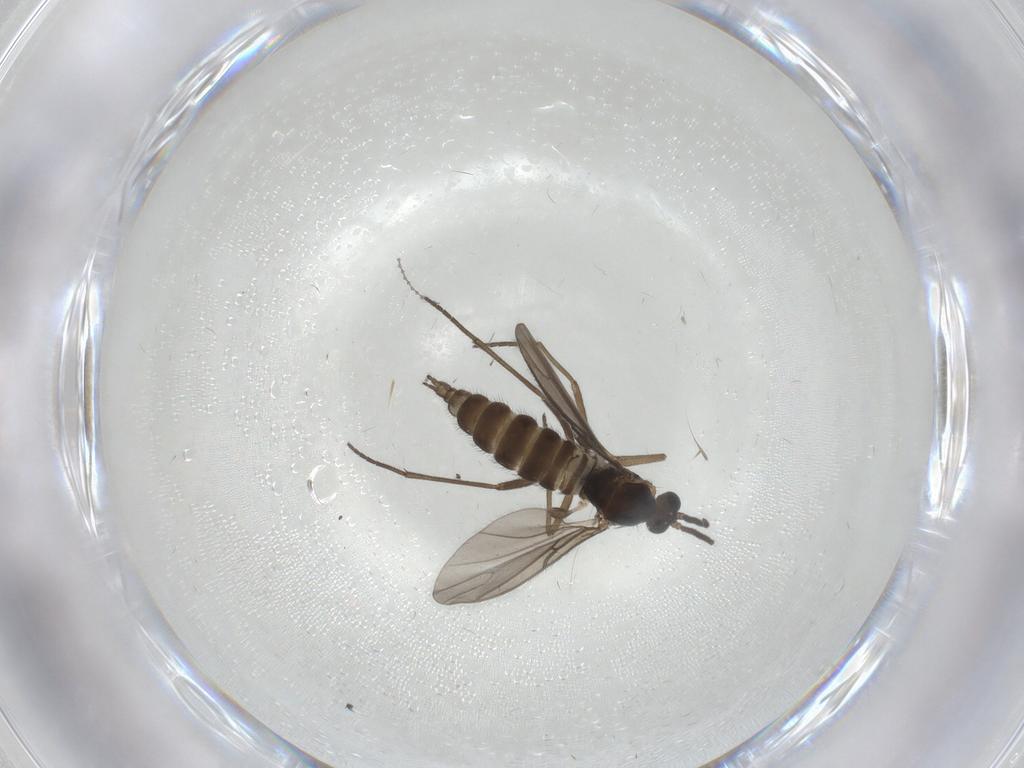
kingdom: Animalia
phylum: Arthropoda
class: Insecta
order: Diptera
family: Sciaridae
